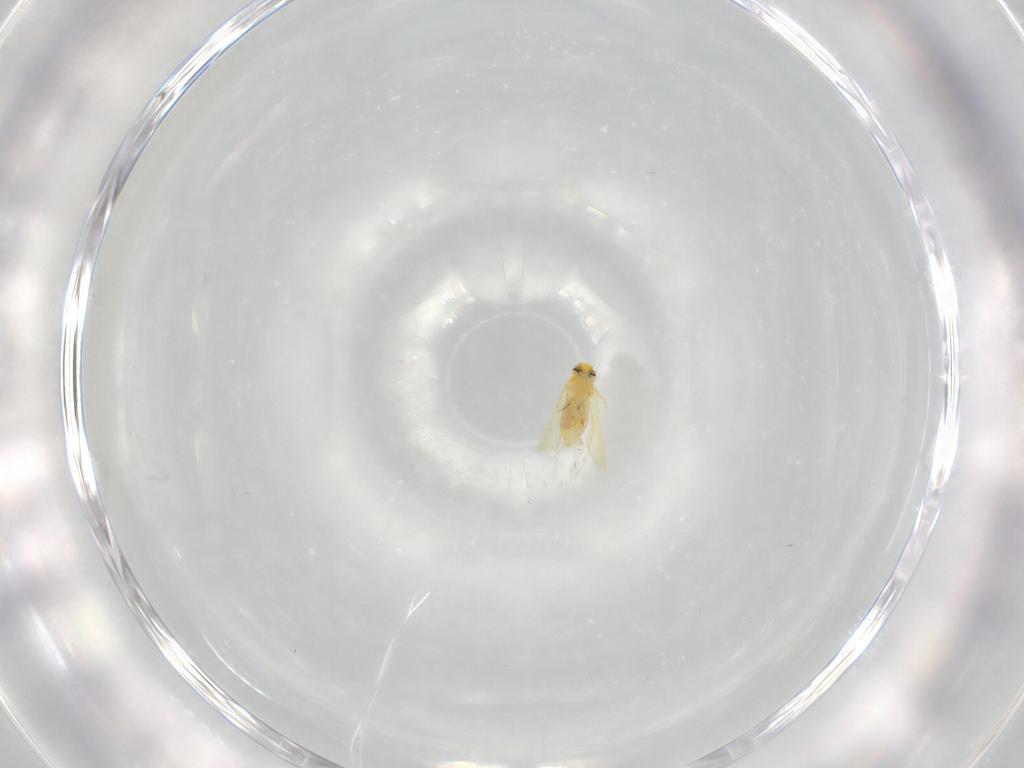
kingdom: Animalia
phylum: Arthropoda
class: Insecta
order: Hemiptera
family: Aleyrodidae
